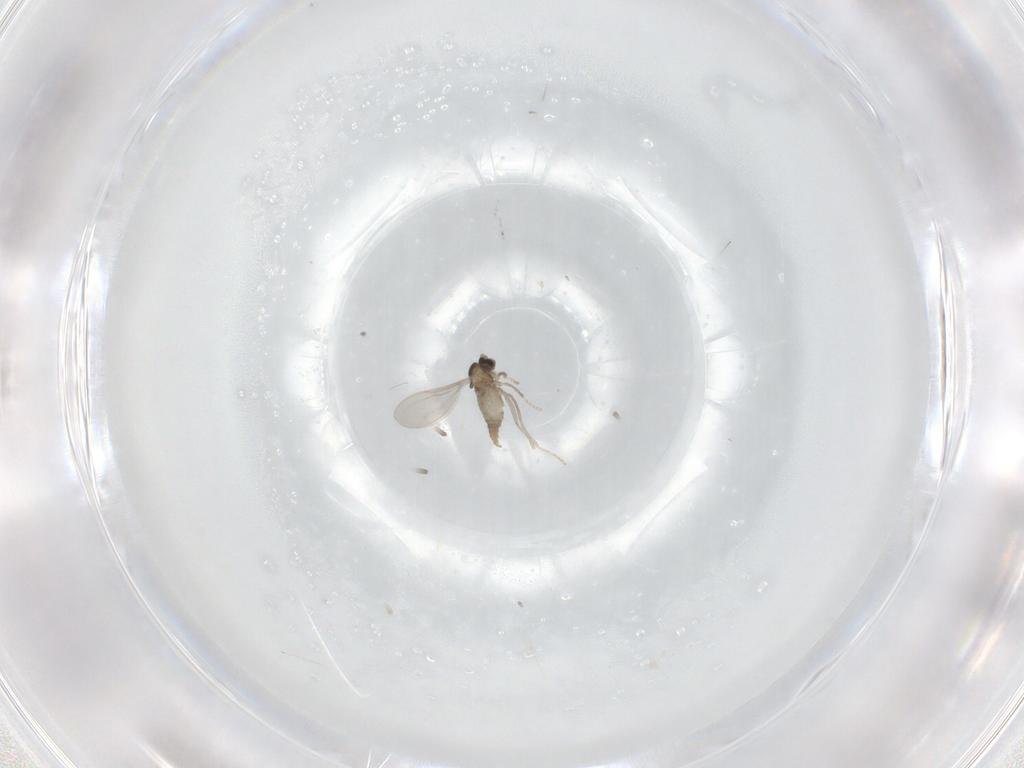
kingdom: Animalia
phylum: Arthropoda
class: Insecta
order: Diptera
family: Cecidomyiidae
